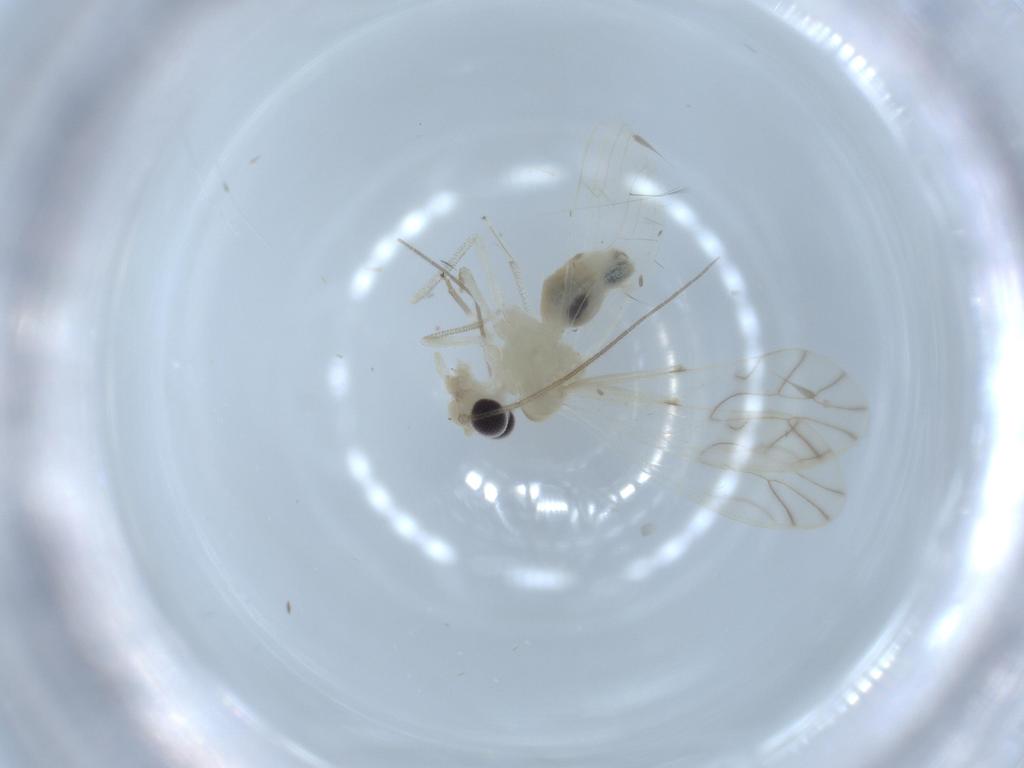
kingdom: Animalia
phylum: Arthropoda
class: Insecta
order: Psocodea
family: Caeciliusidae
